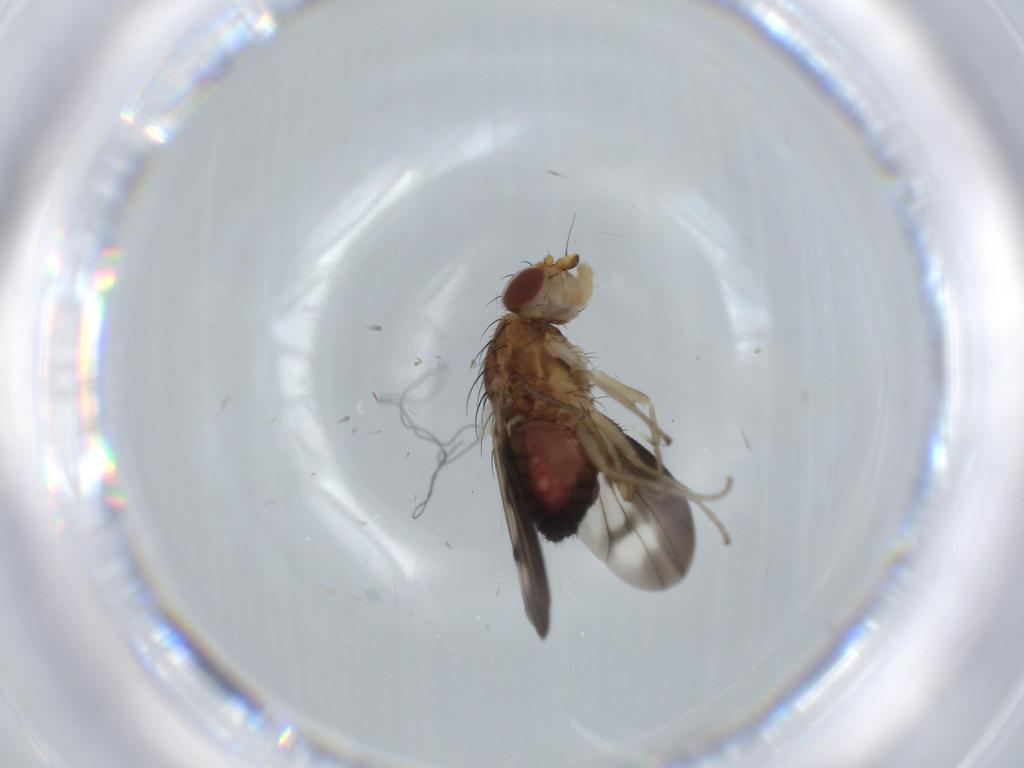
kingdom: Animalia
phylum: Arthropoda
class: Insecta
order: Diptera
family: Heleomyzidae
